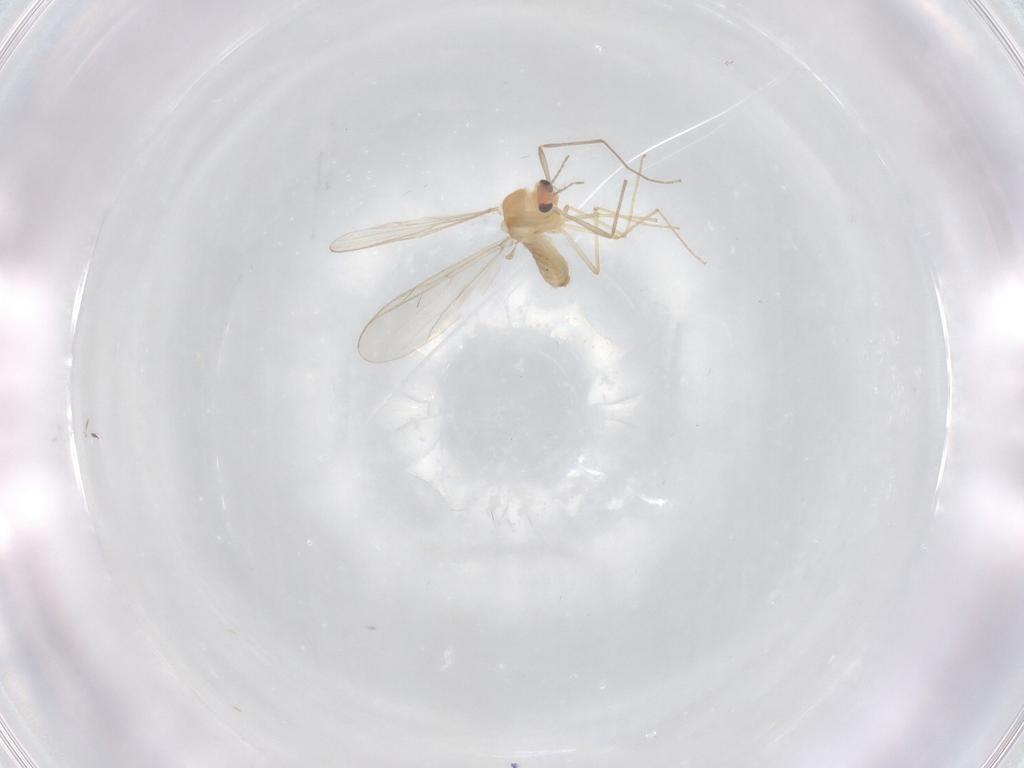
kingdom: Animalia
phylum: Arthropoda
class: Insecta
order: Diptera
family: Chironomidae
